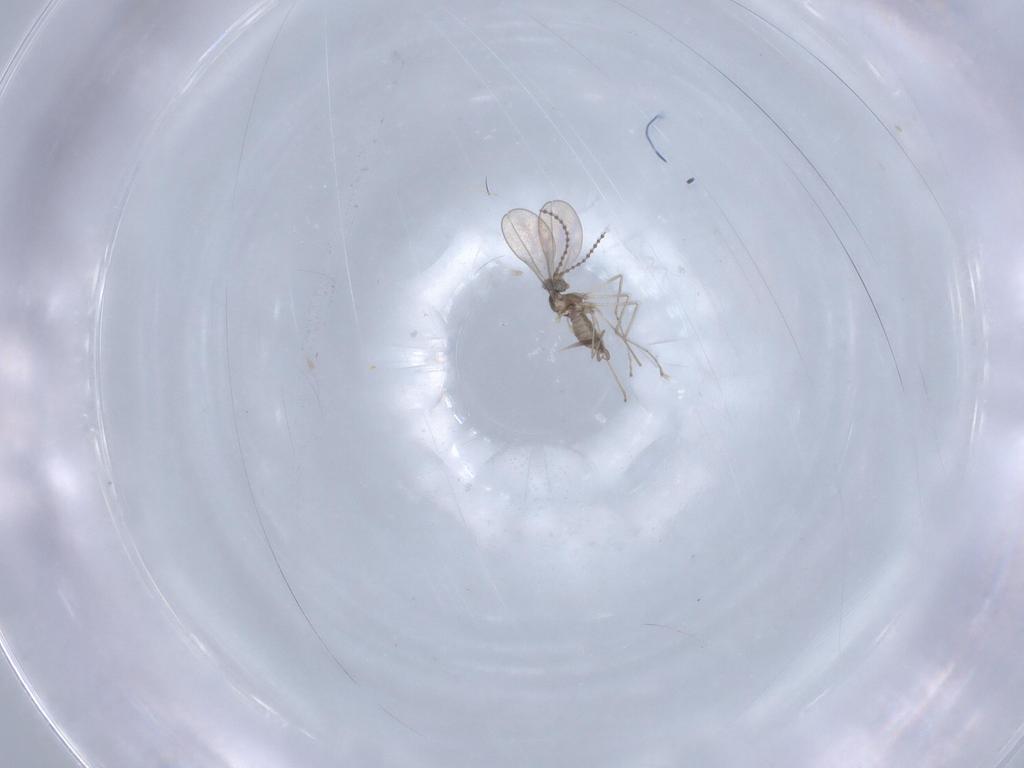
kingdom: Animalia
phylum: Arthropoda
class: Insecta
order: Diptera
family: Cecidomyiidae
